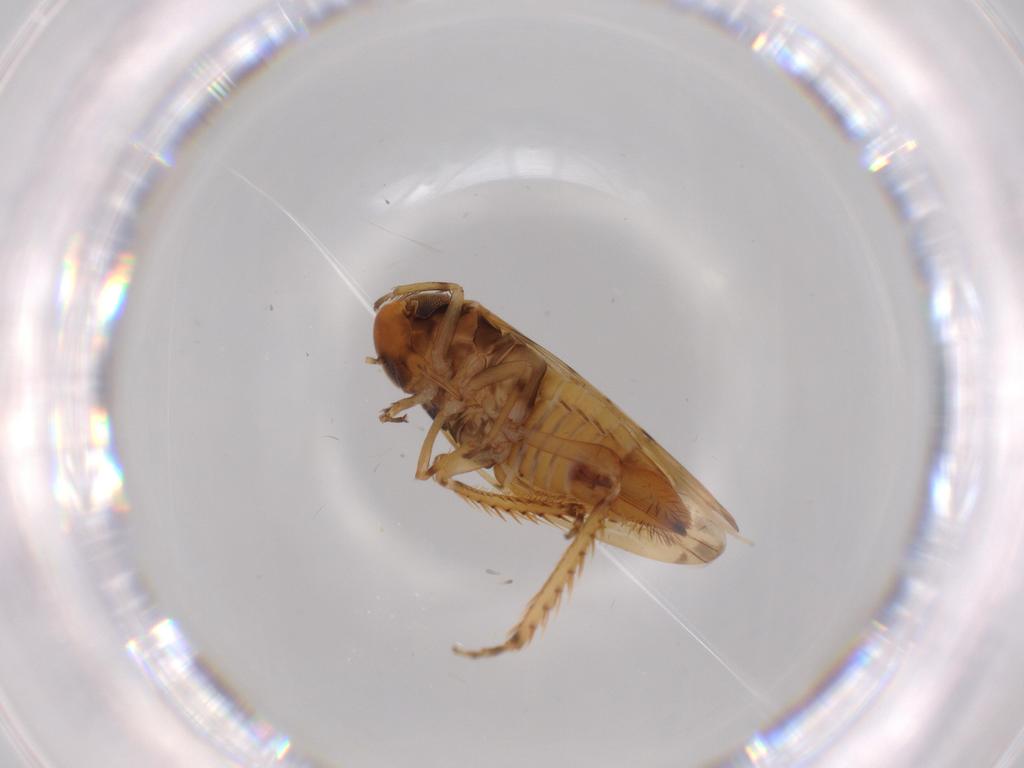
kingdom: Animalia
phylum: Arthropoda
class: Insecta
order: Hemiptera
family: Cicadellidae
